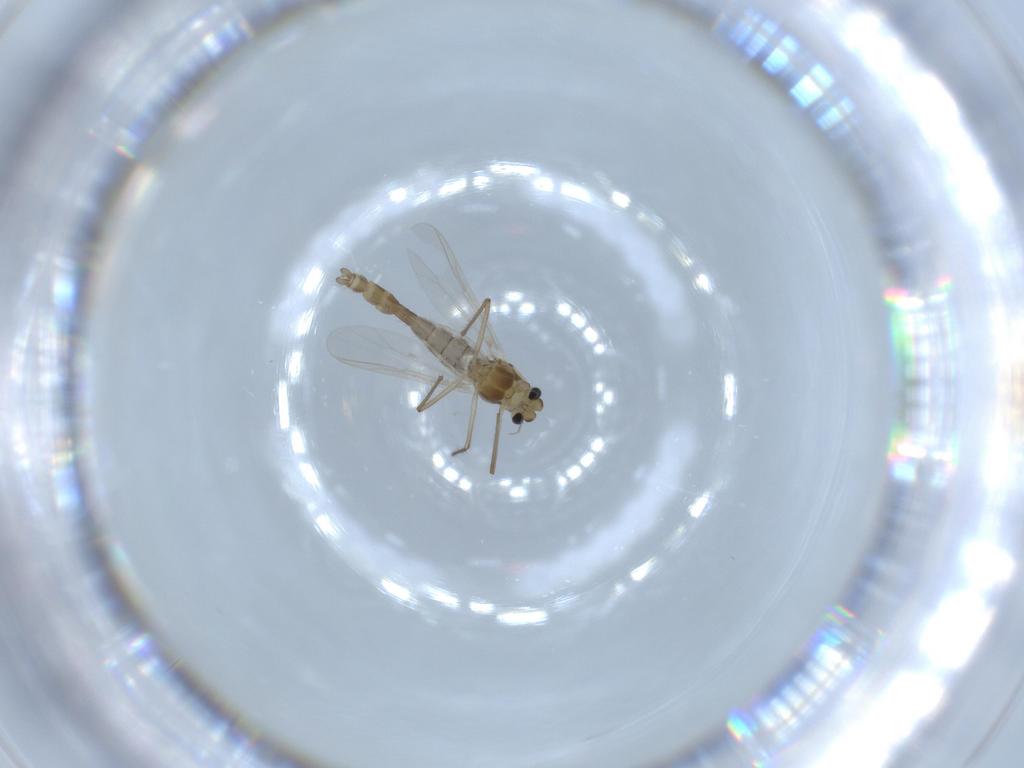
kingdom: Animalia
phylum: Arthropoda
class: Insecta
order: Diptera
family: Chironomidae
